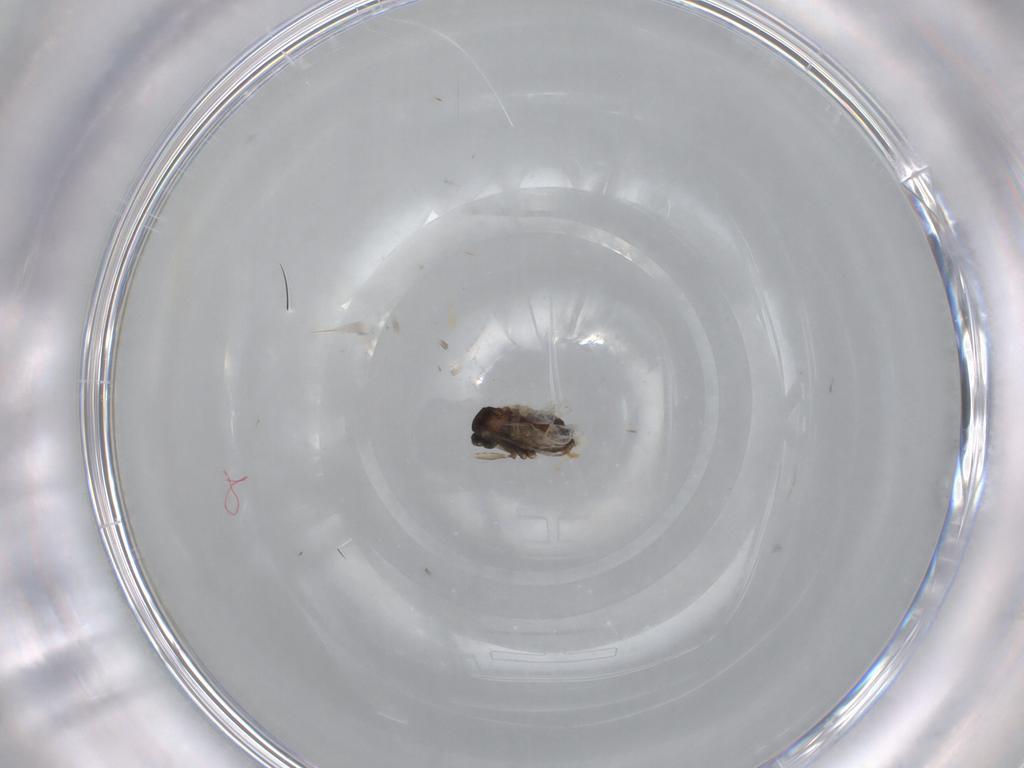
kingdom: Animalia
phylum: Arthropoda
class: Insecta
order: Diptera
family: Cecidomyiidae
